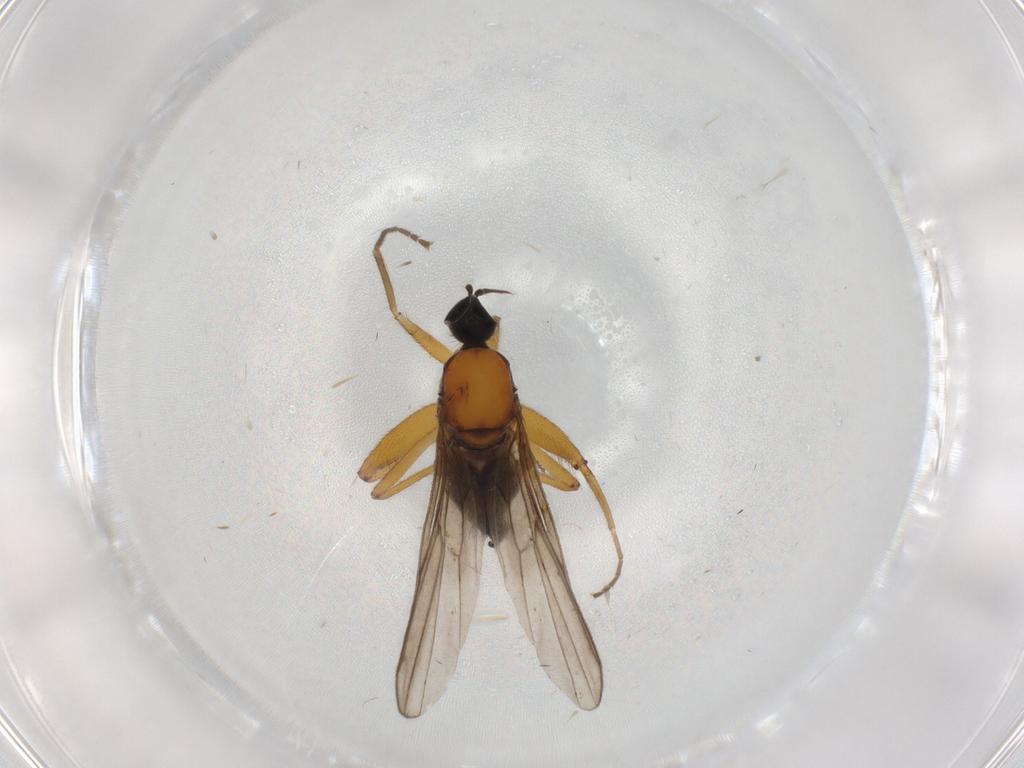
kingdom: Animalia
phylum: Arthropoda
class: Insecta
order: Diptera
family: Hybotidae
